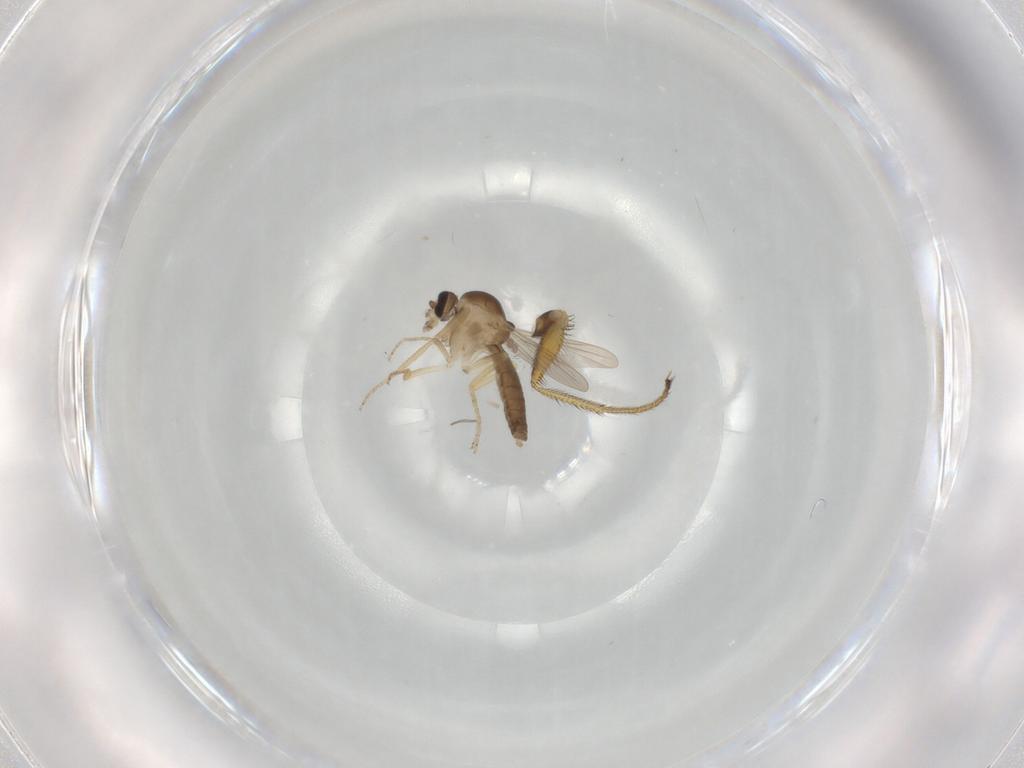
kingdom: Animalia
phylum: Arthropoda
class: Insecta
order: Diptera
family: Ceratopogonidae
